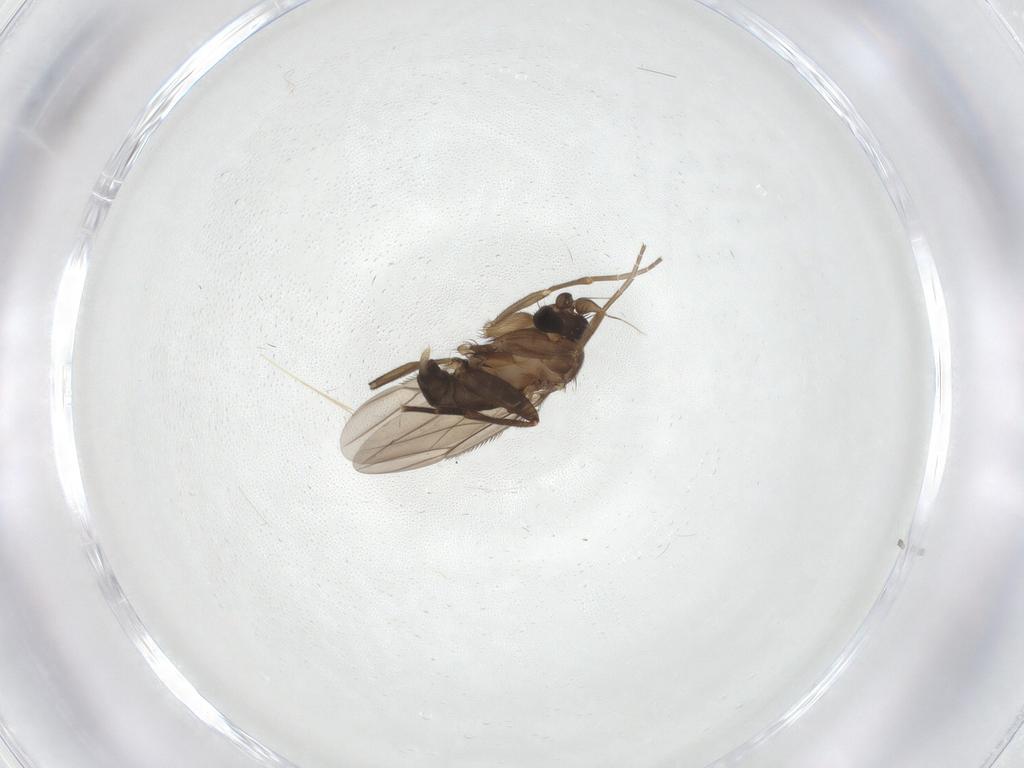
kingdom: Animalia
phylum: Arthropoda
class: Insecta
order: Diptera
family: Phoridae
